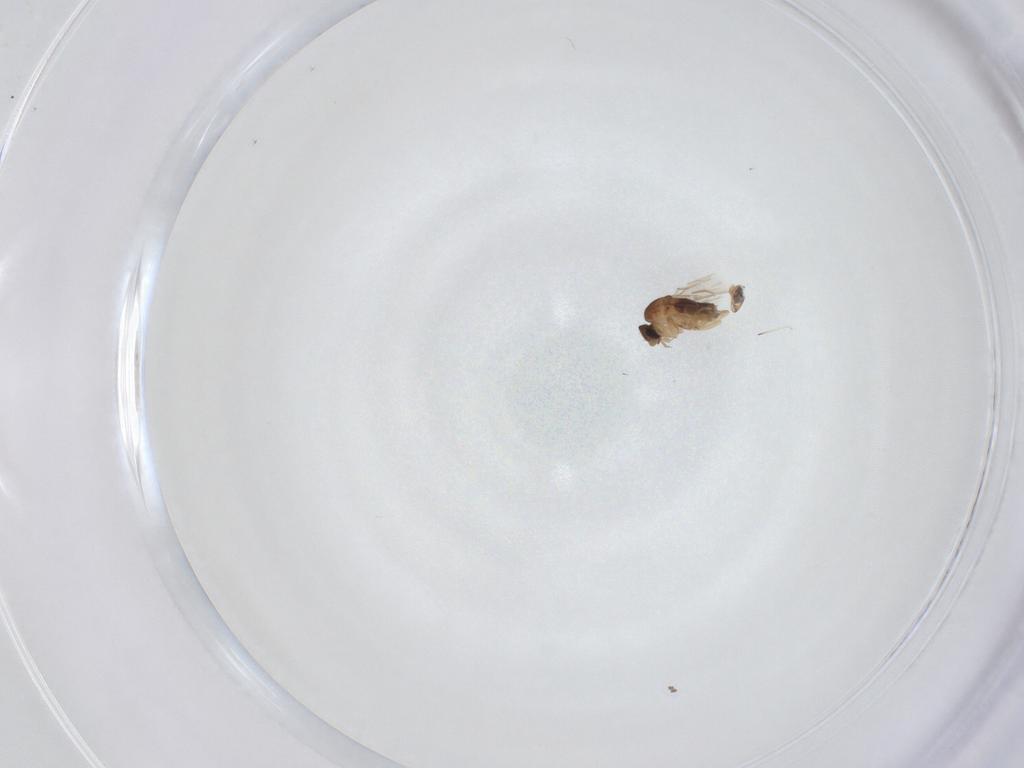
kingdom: Animalia
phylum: Arthropoda
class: Insecta
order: Diptera
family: Phoridae
